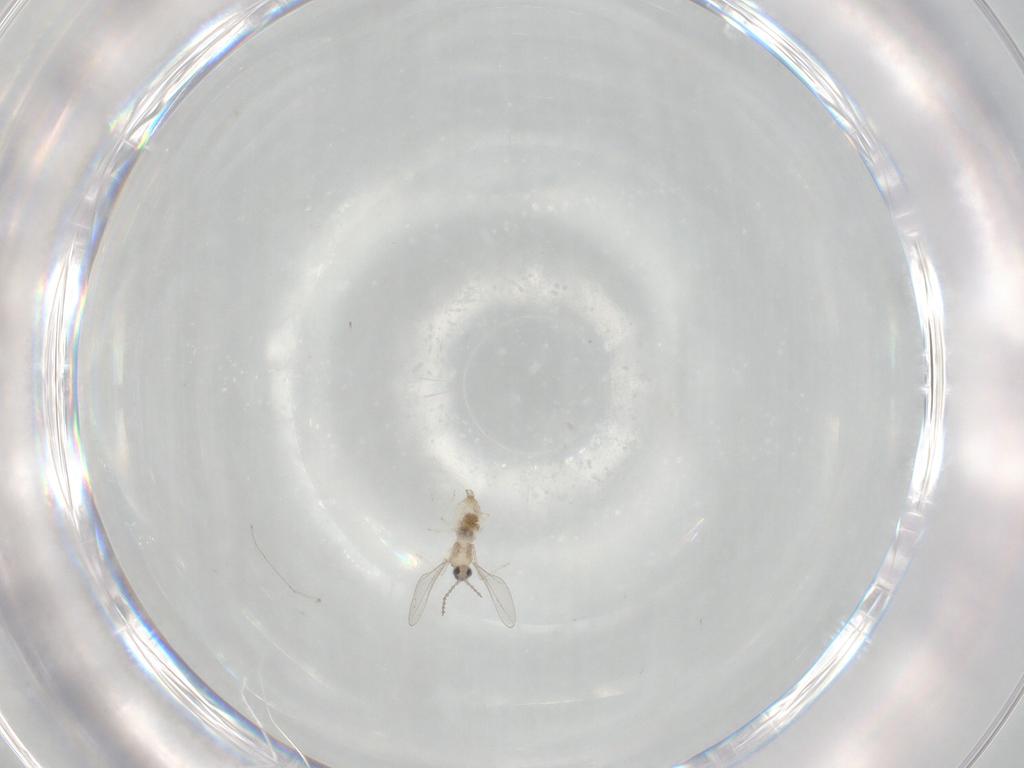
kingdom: Animalia
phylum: Arthropoda
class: Insecta
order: Diptera
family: Cecidomyiidae
